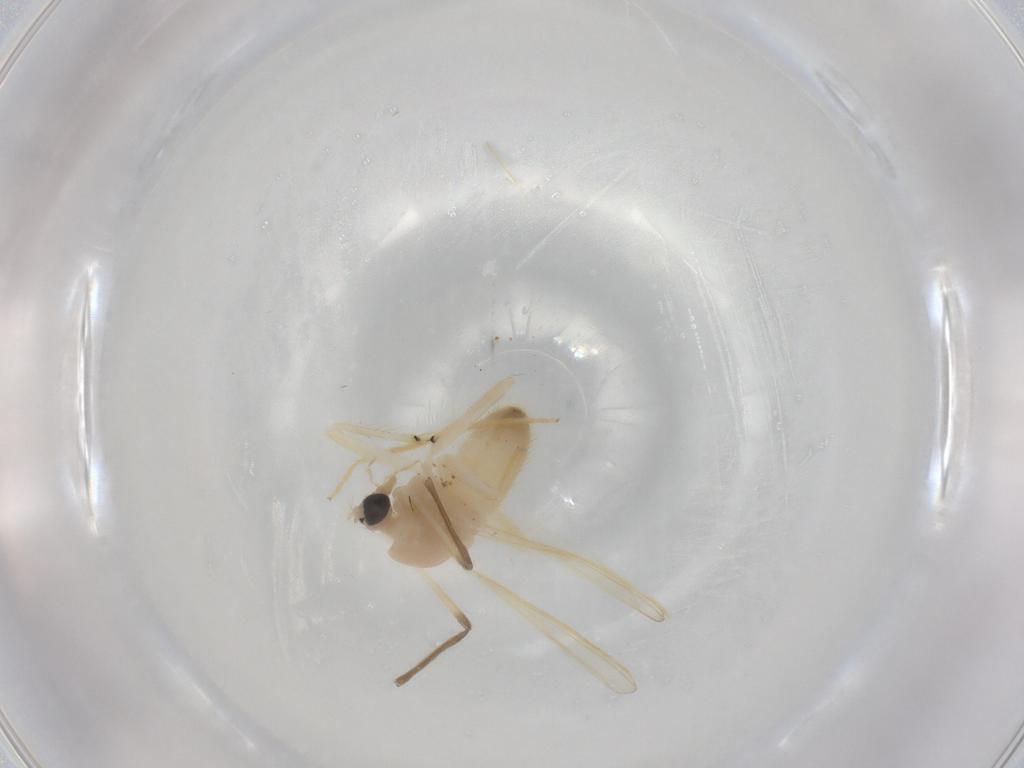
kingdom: Animalia
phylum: Arthropoda
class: Insecta
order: Diptera
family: Chironomidae
